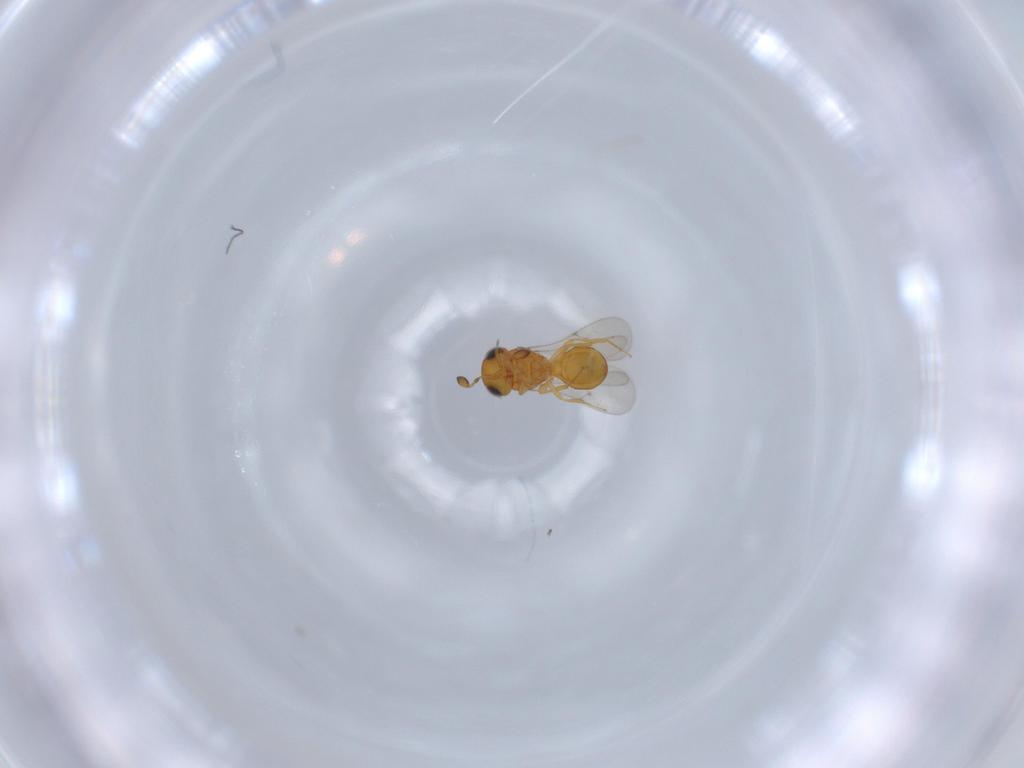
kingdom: Animalia
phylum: Arthropoda
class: Insecta
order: Hymenoptera
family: Scelionidae
